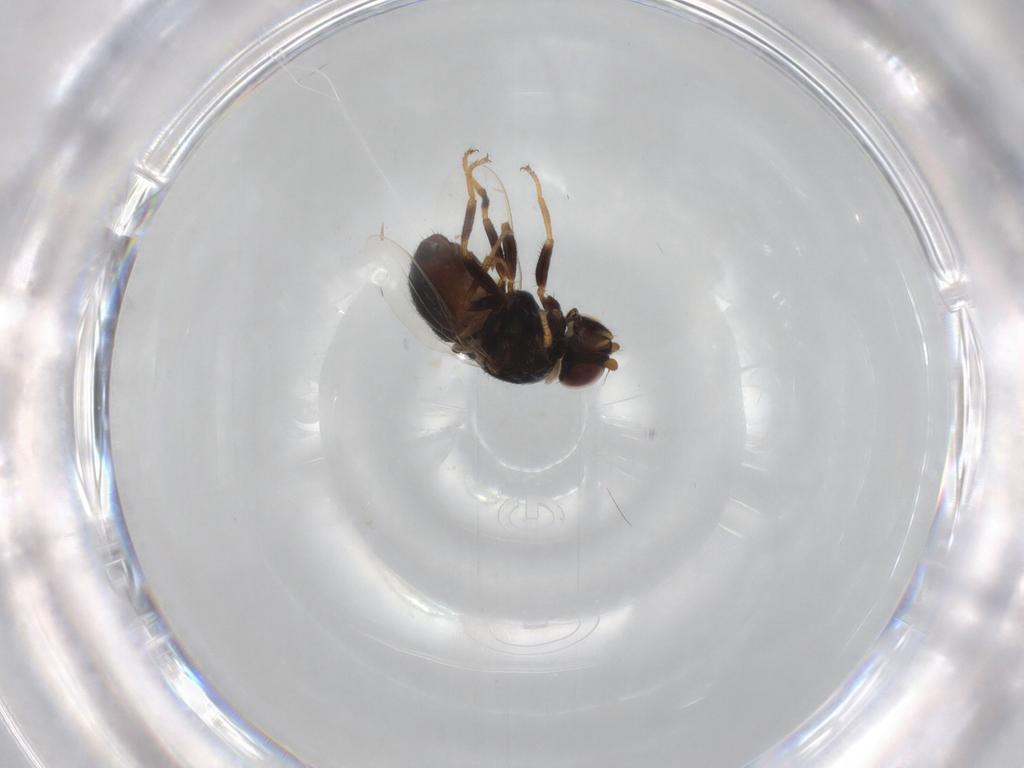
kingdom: Animalia
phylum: Arthropoda
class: Insecta
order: Diptera
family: Chloropidae
